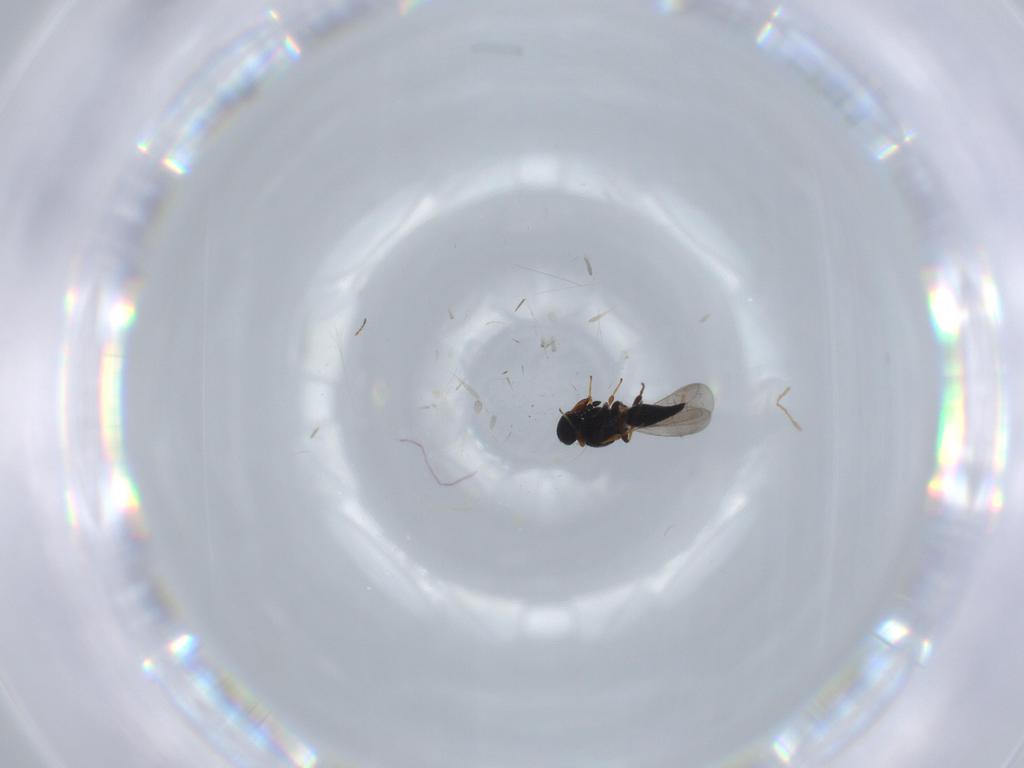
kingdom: Animalia
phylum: Arthropoda
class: Insecta
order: Hymenoptera
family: Platygastridae
